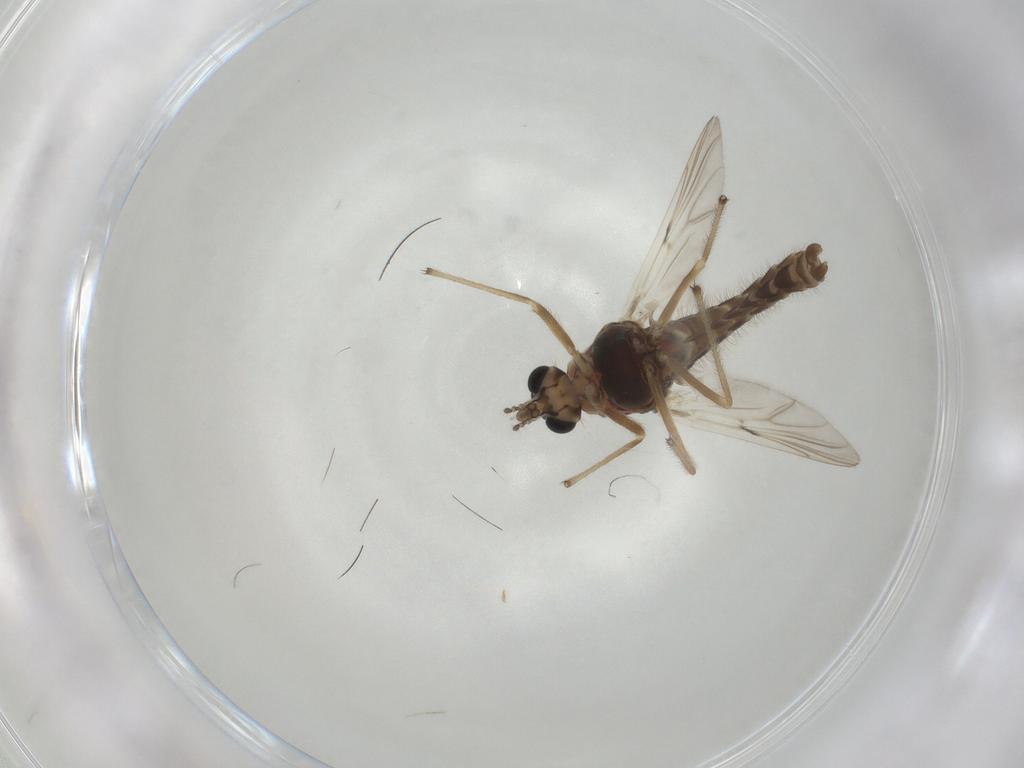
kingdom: Animalia
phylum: Arthropoda
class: Insecta
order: Diptera
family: Chironomidae
